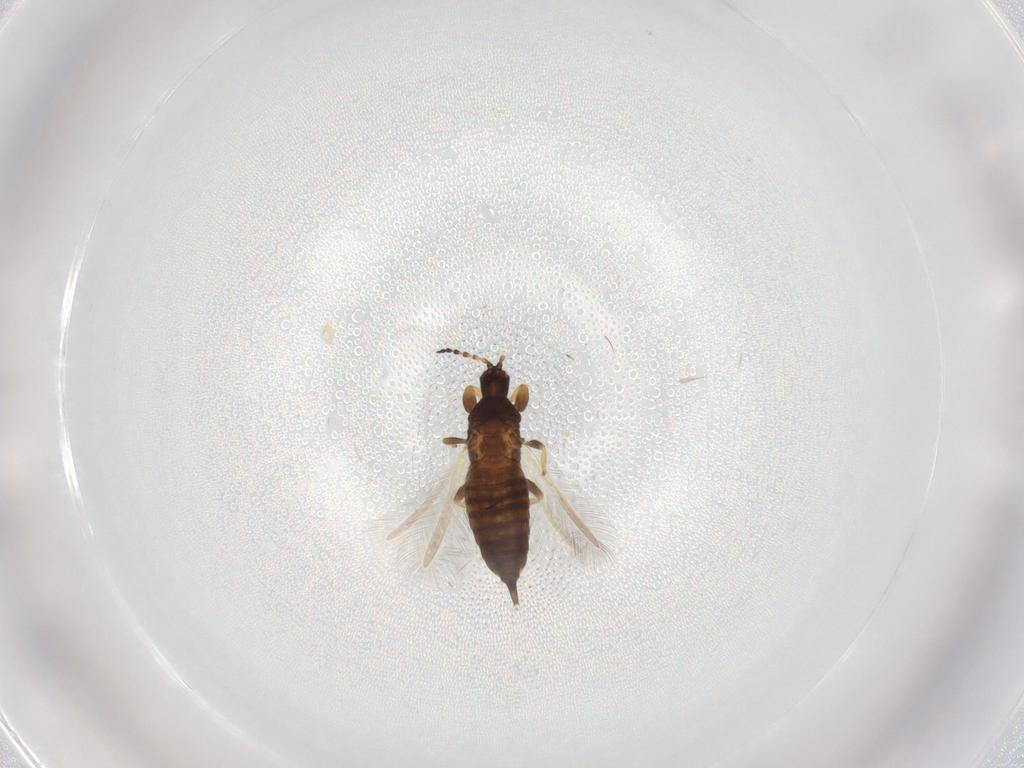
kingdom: Animalia
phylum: Arthropoda
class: Insecta
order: Thysanoptera
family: Phlaeothripidae
